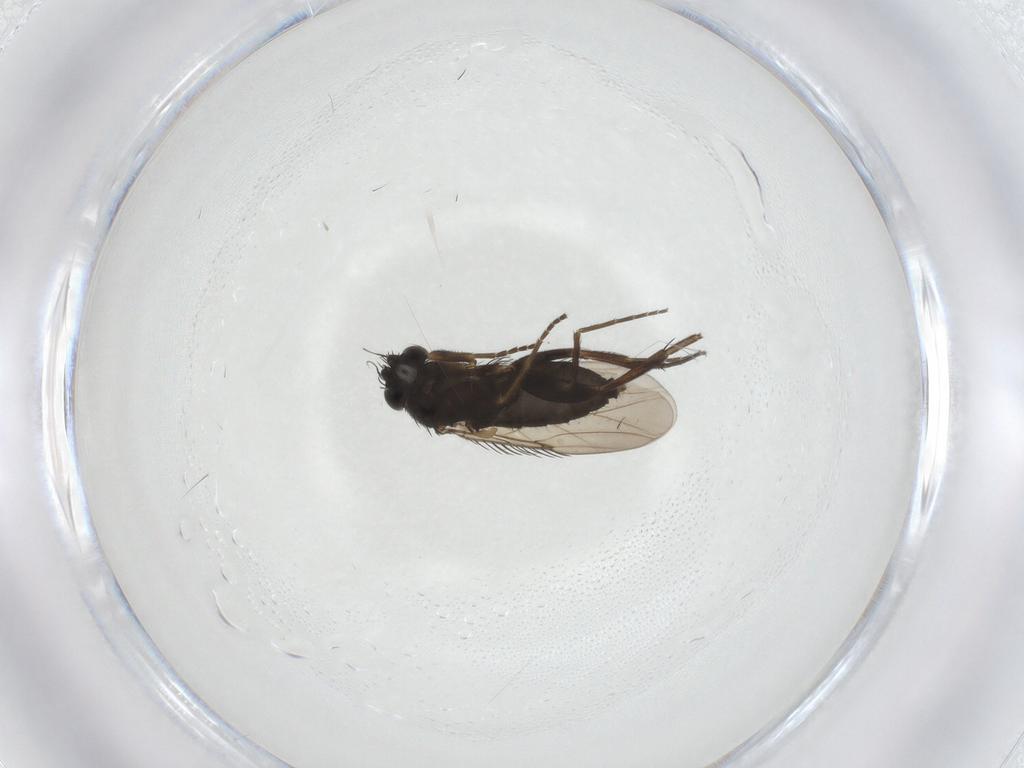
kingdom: Animalia
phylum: Arthropoda
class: Insecta
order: Diptera
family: Phoridae
